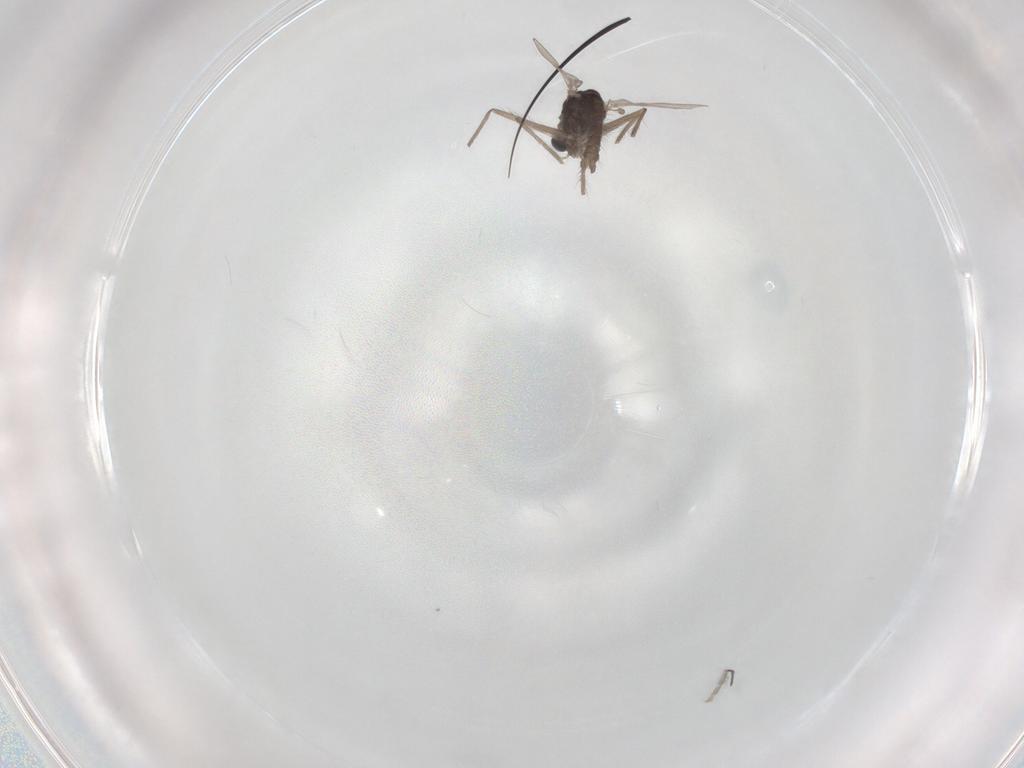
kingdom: Animalia
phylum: Arthropoda
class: Insecta
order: Diptera
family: Chironomidae
